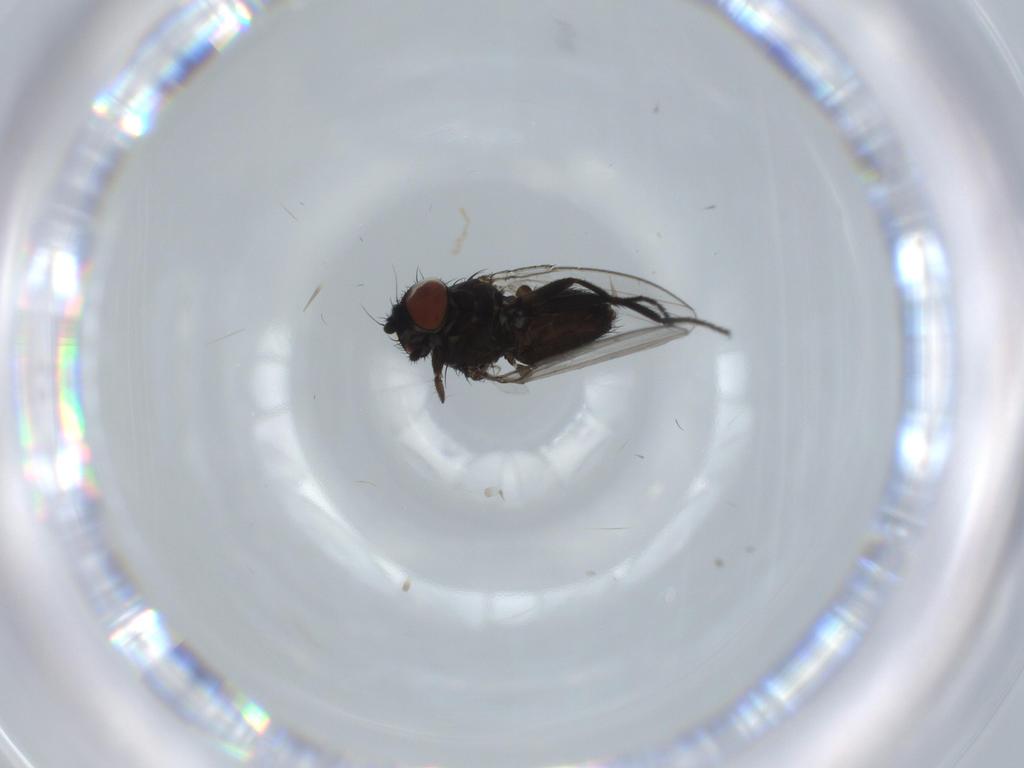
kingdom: Animalia
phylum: Arthropoda
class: Insecta
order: Diptera
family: Milichiidae
